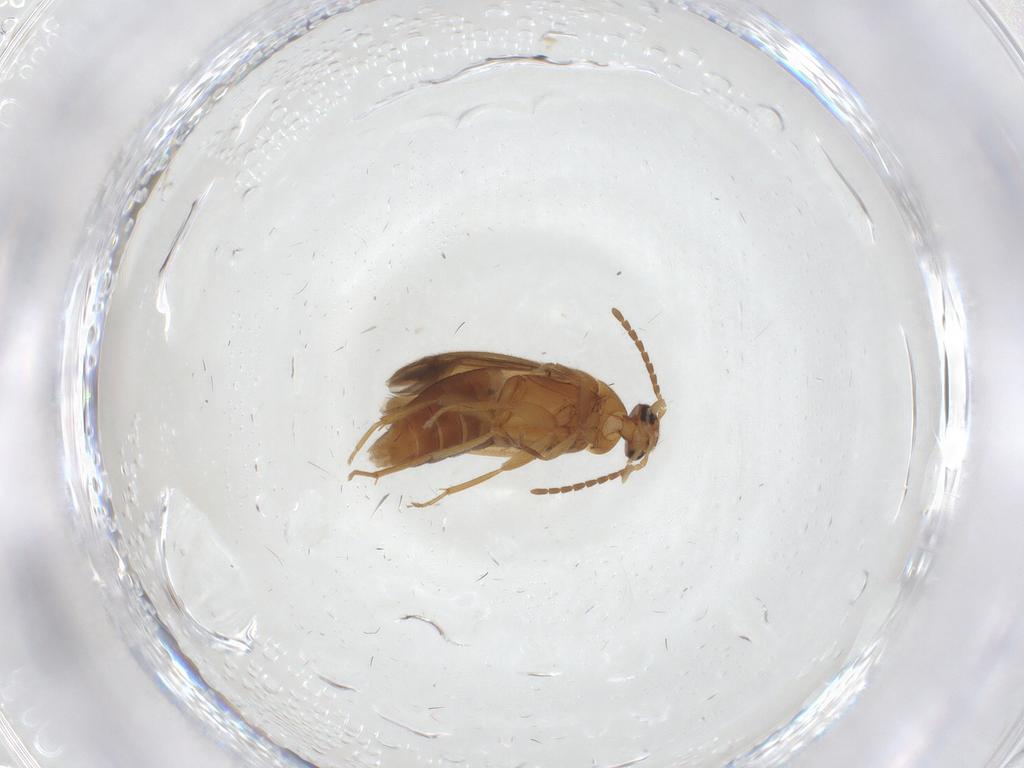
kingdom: Animalia
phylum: Arthropoda
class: Insecta
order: Coleoptera
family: Scraptiidae
